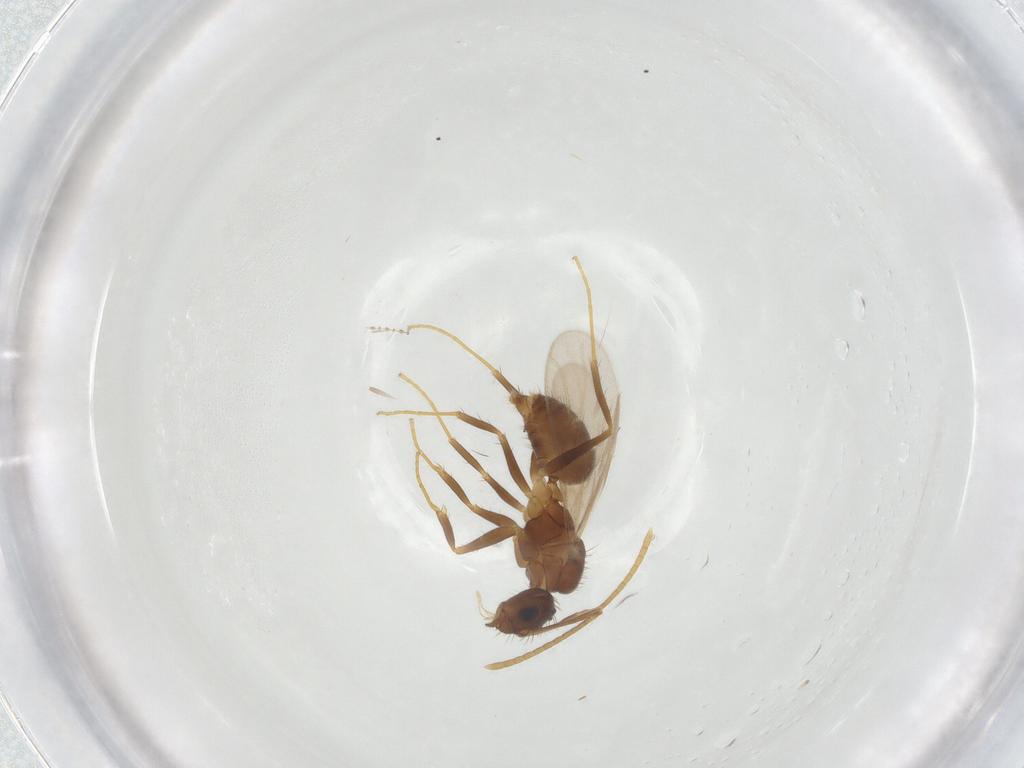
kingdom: Animalia
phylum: Arthropoda
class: Insecta
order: Hymenoptera
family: Formicidae
